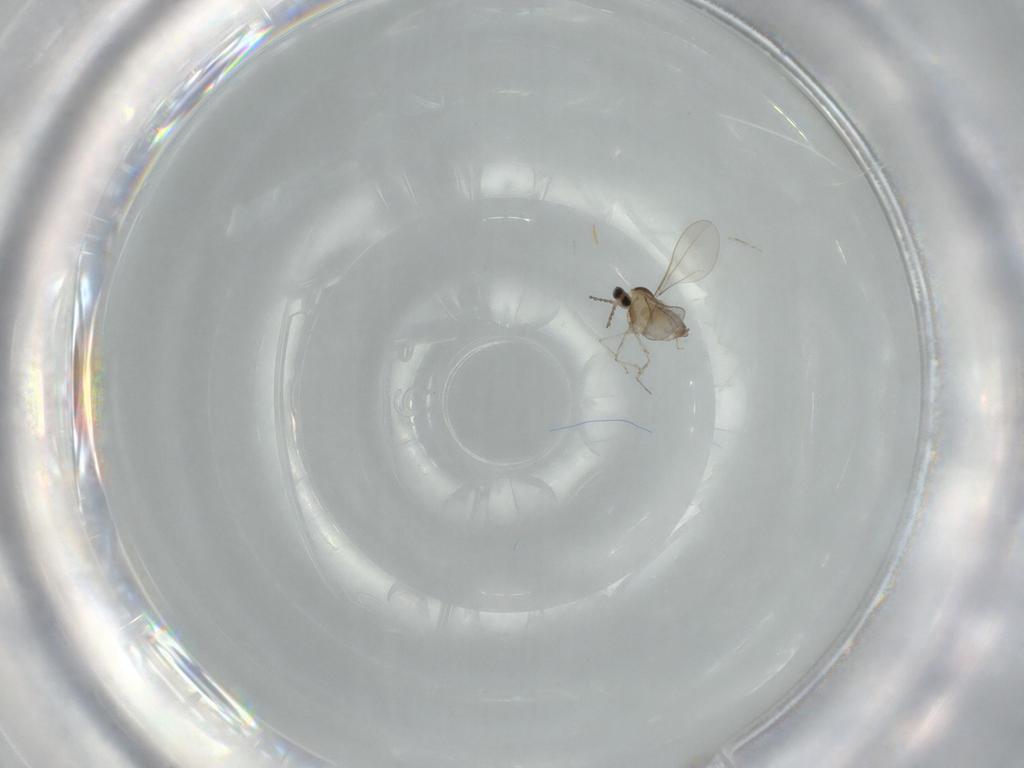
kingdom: Animalia
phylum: Arthropoda
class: Insecta
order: Diptera
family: Cecidomyiidae
